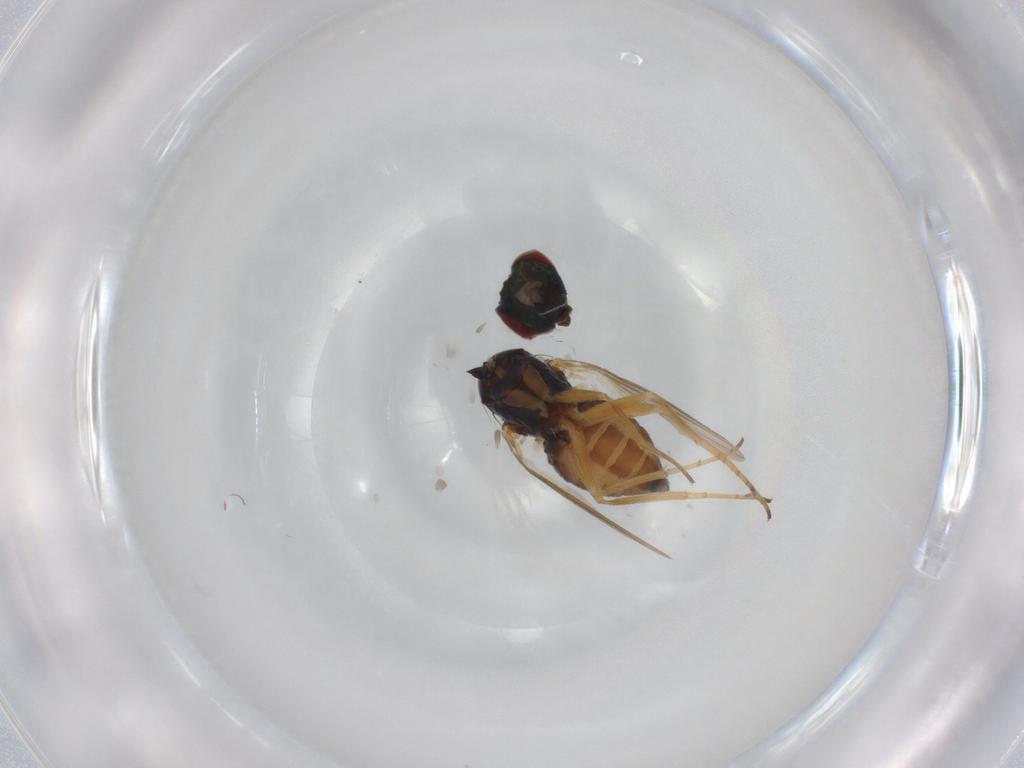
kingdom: Animalia
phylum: Arthropoda
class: Insecta
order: Diptera
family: Dolichopodidae
